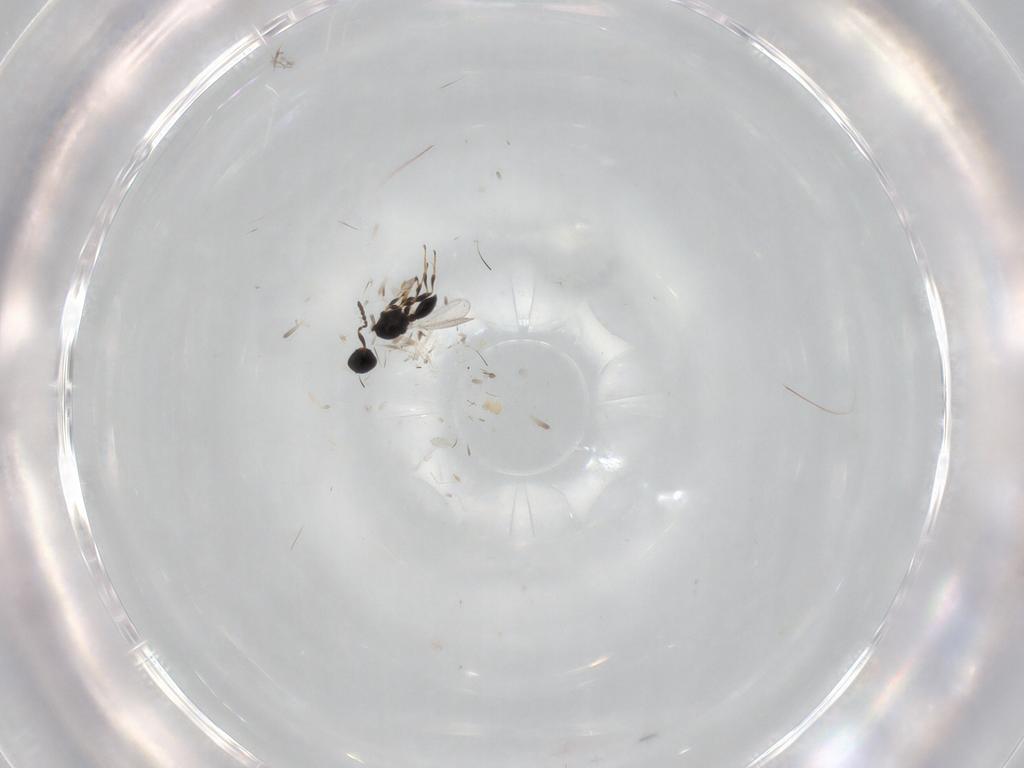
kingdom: Animalia
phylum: Arthropoda
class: Insecta
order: Hymenoptera
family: Platygastridae
